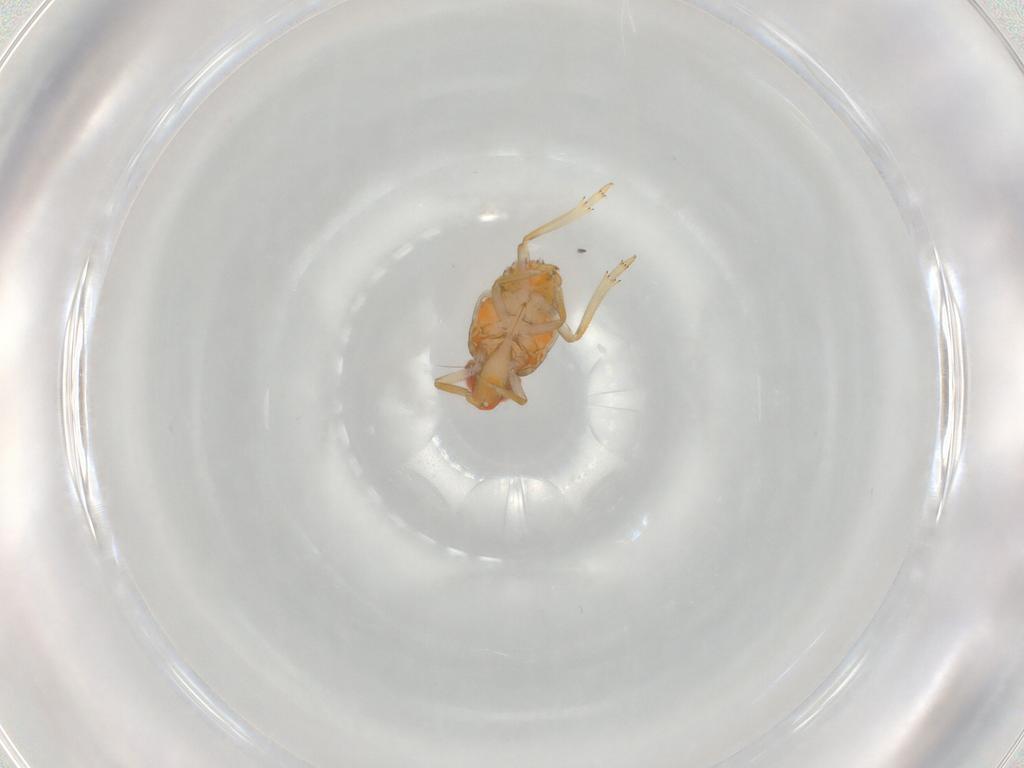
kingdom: Animalia
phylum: Arthropoda
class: Insecta
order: Hemiptera
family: Fulgoroidea_incertae_sedis
